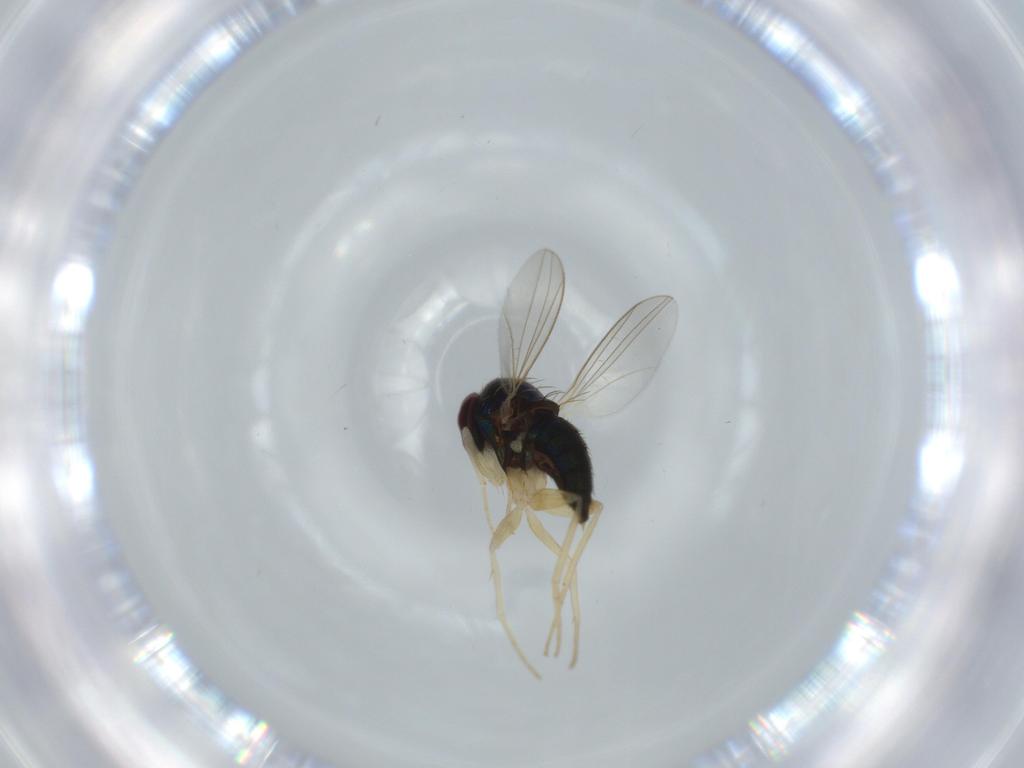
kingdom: Animalia
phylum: Arthropoda
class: Insecta
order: Diptera
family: Dolichopodidae
